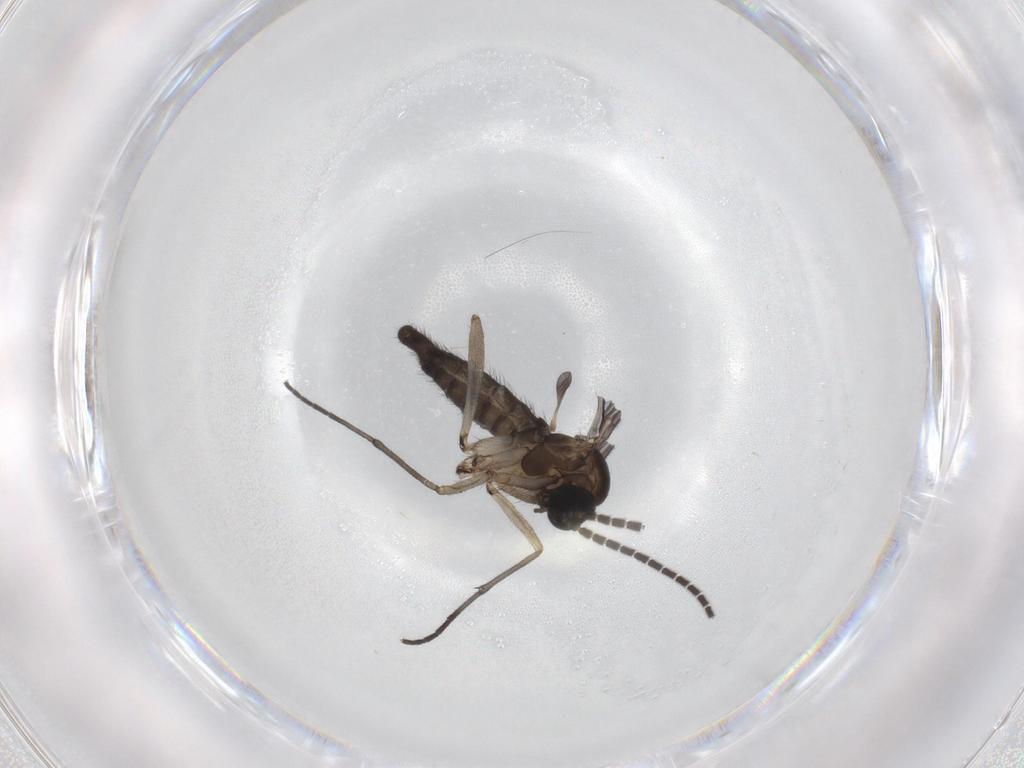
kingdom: Animalia
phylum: Arthropoda
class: Insecta
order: Diptera
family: Sciaridae
